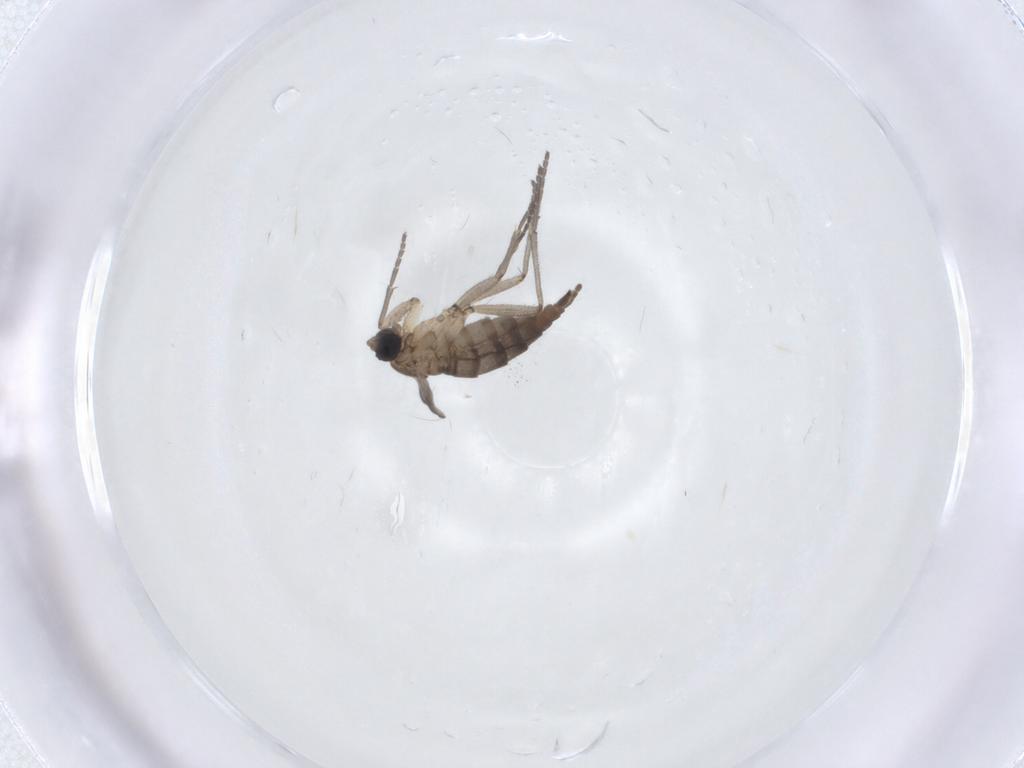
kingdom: Animalia
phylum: Arthropoda
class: Insecta
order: Diptera
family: Sciaridae
